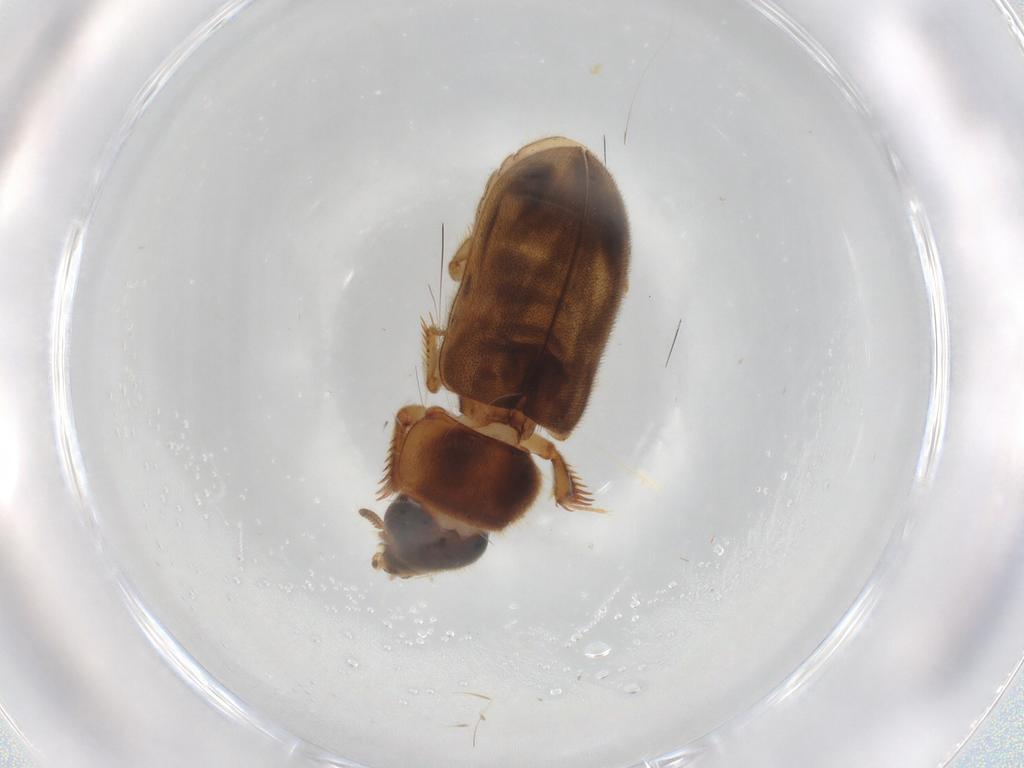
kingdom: Animalia
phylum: Arthropoda
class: Insecta
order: Coleoptera
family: Heteroceridae
